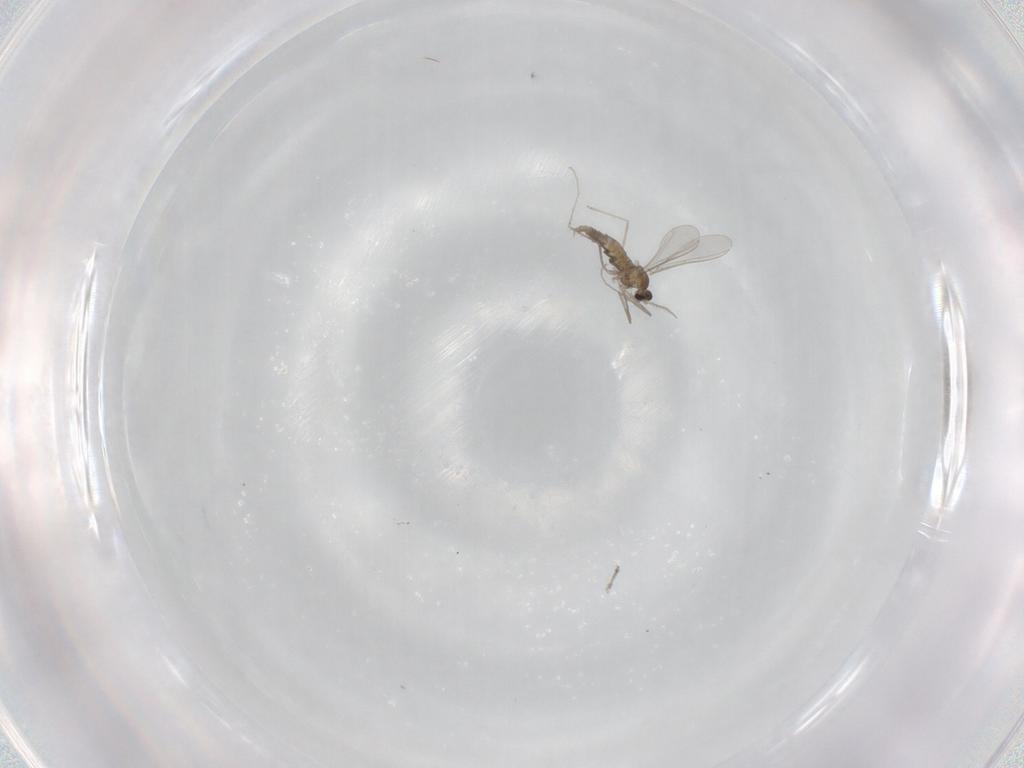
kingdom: Animalia
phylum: Arthropoda
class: Insecta
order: Diptera
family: Cecidomyiidae
